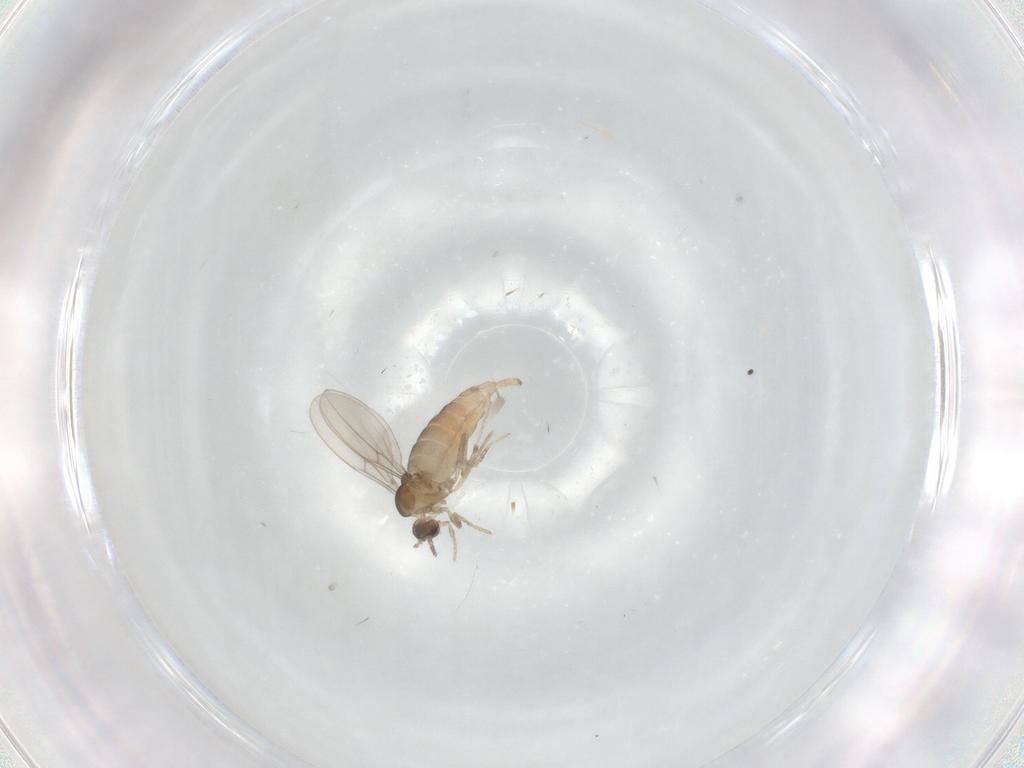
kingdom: Animalia
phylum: Arthropoda
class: Insecta
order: Diptera
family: Cecidomyiidae
